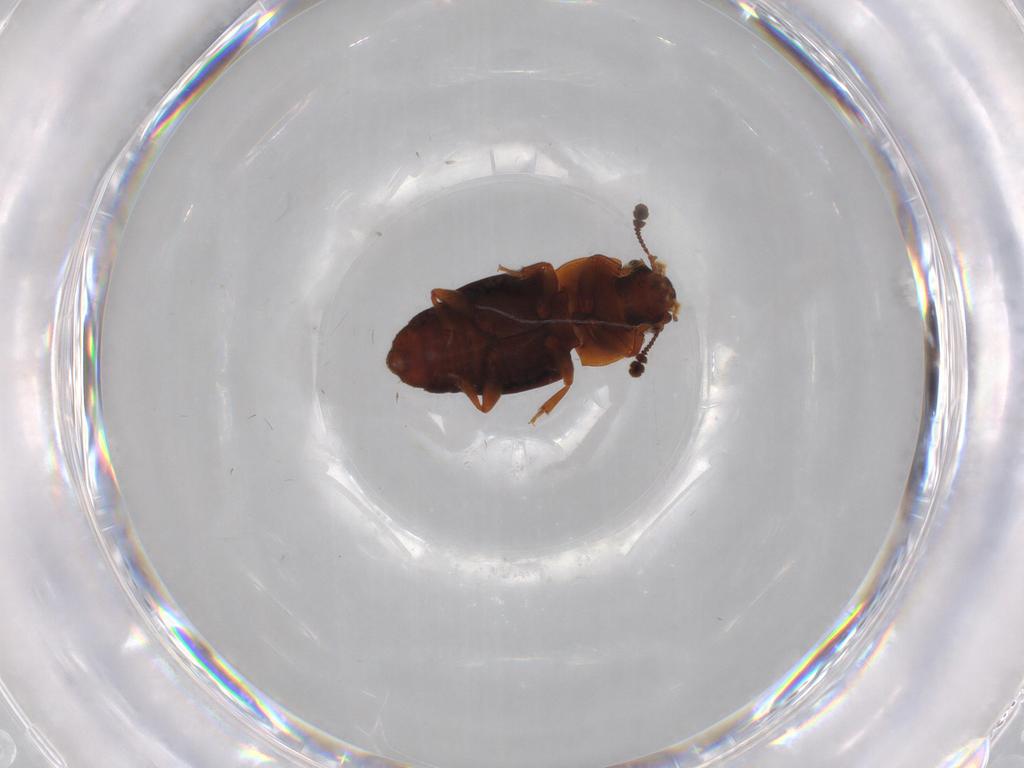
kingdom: Animalia
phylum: Arthropoda
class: Insecta
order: Coleoptera
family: Nitidulidae
